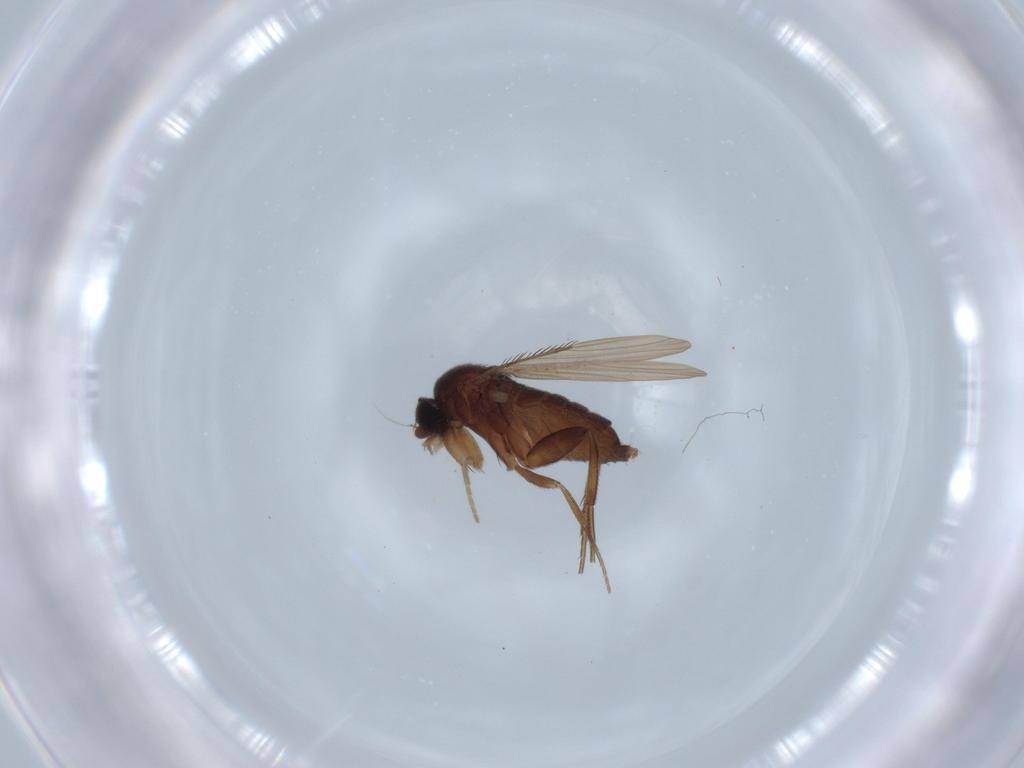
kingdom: Animalia
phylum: Arthropoda
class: Insecta
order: Diptera
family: Phoridae
